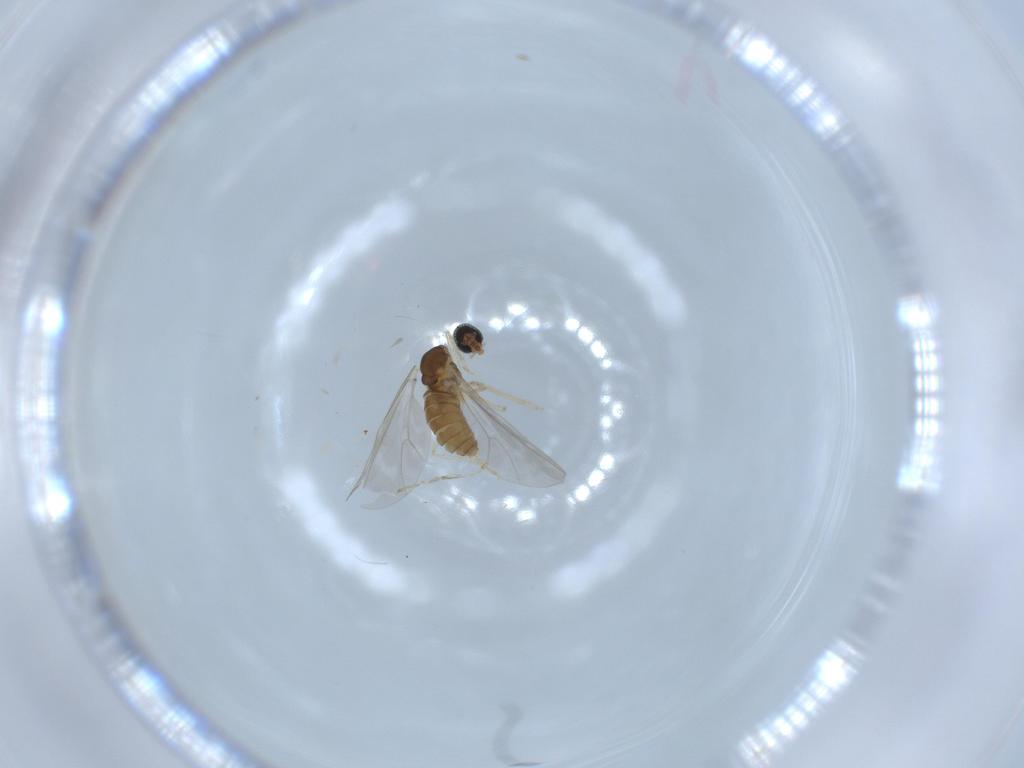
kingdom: Animalia
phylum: Arthropoda
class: Insecta
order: Diptera
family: Cecidomyiidae
